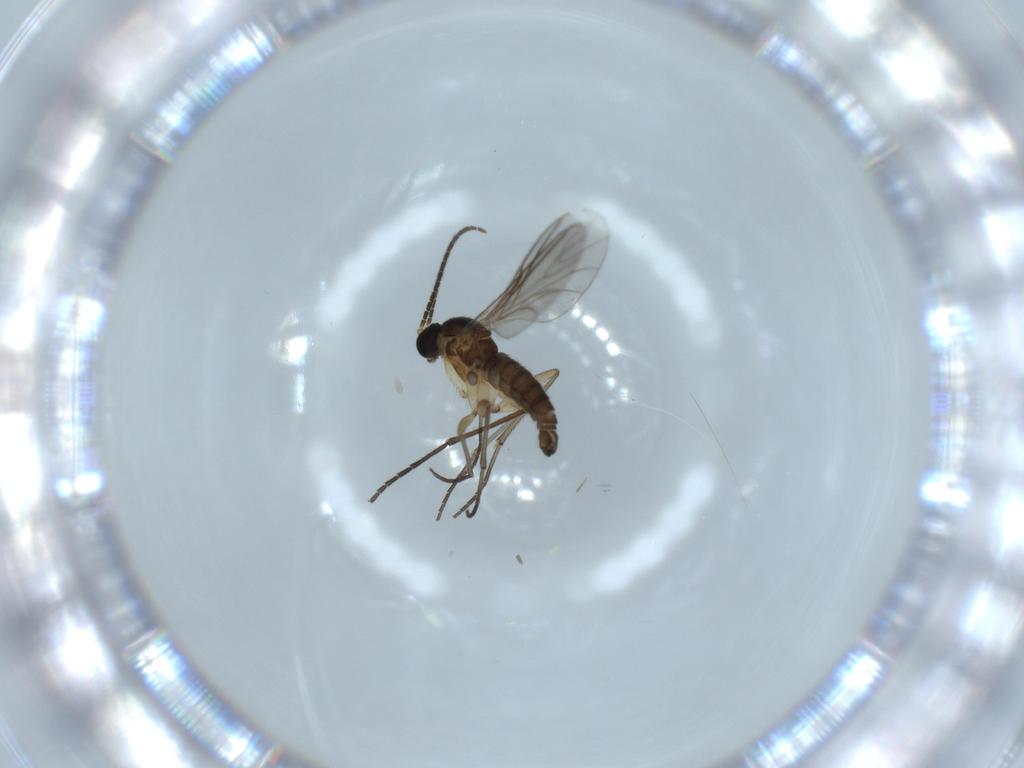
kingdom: Animalia
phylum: Arthropoda
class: Insecta
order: Diptera
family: Sciaridae
